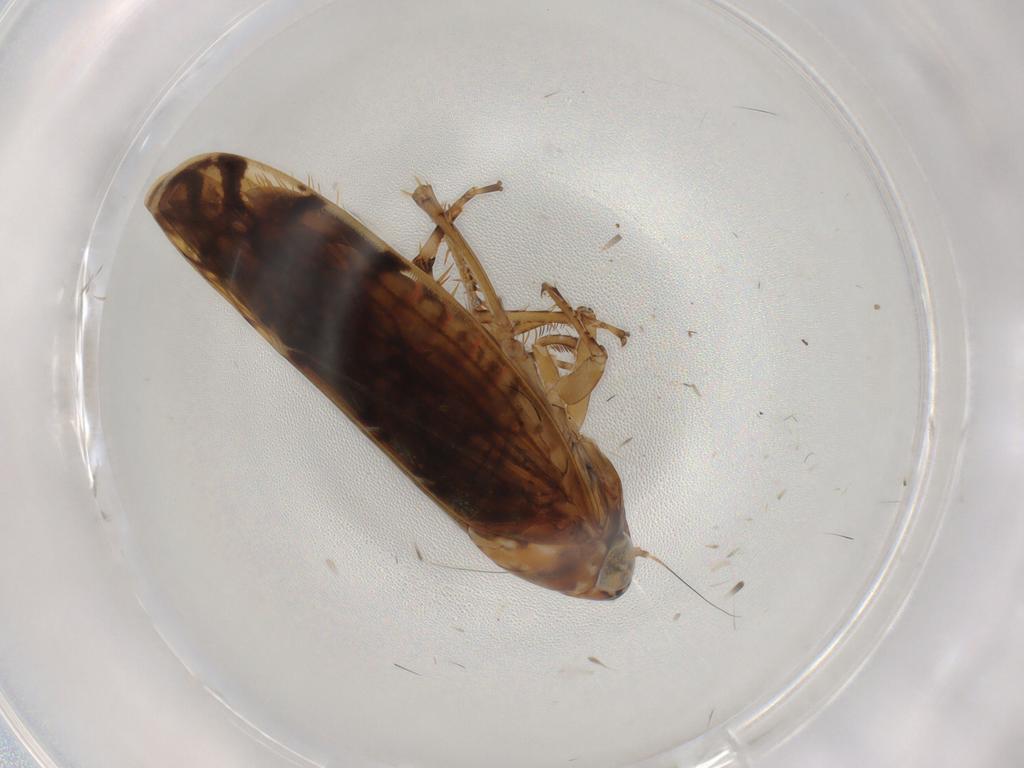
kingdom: Animalia
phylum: Arthropoda
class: Insecta
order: Hemiptera
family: Cicadellidae
